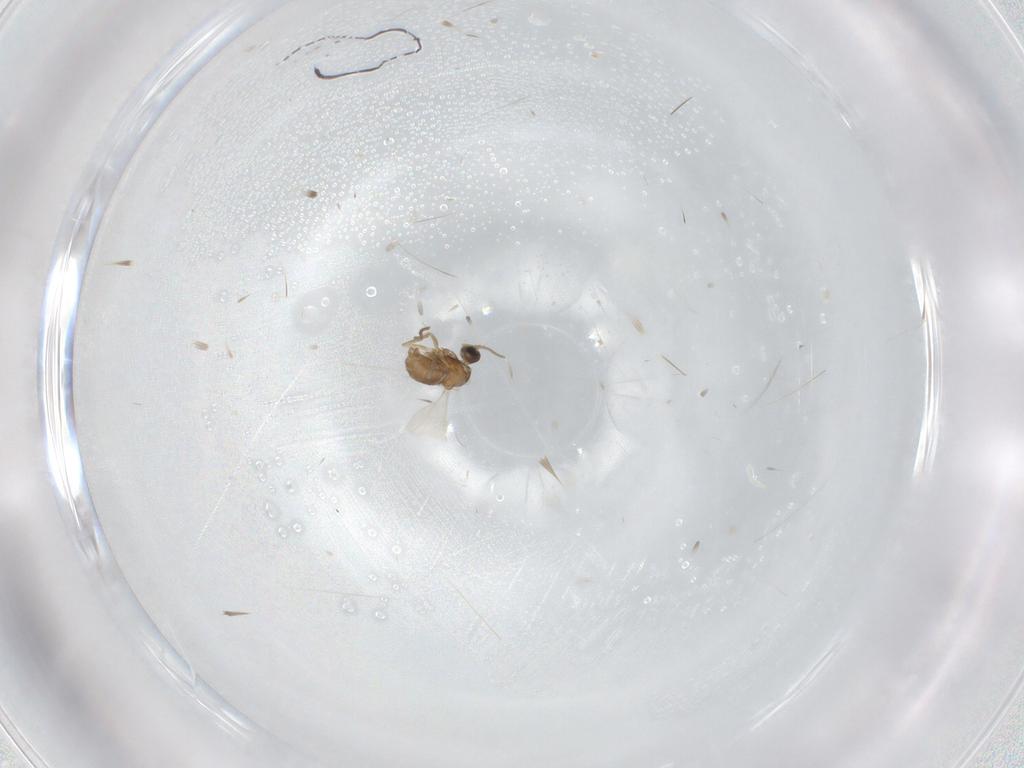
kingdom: Animalia
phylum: Arthropoda
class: Insecta
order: Diptera
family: Cecidomyiidae
